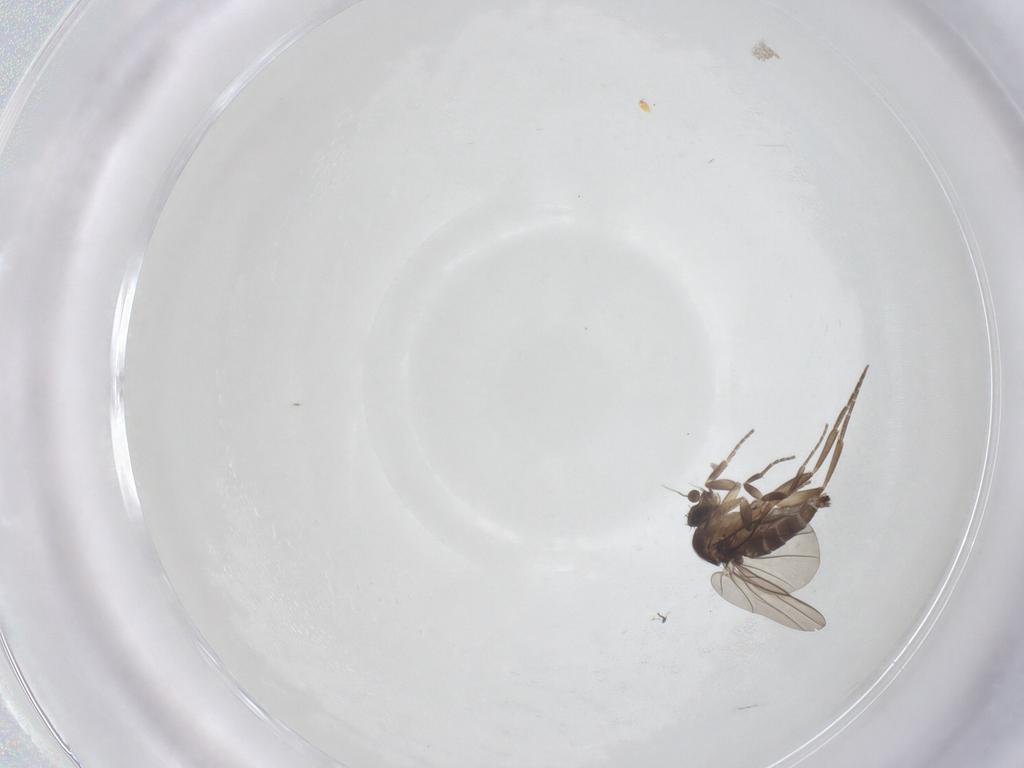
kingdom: Animalia
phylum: Arthropoda
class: Insecta
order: Diptera
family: Phoridae
